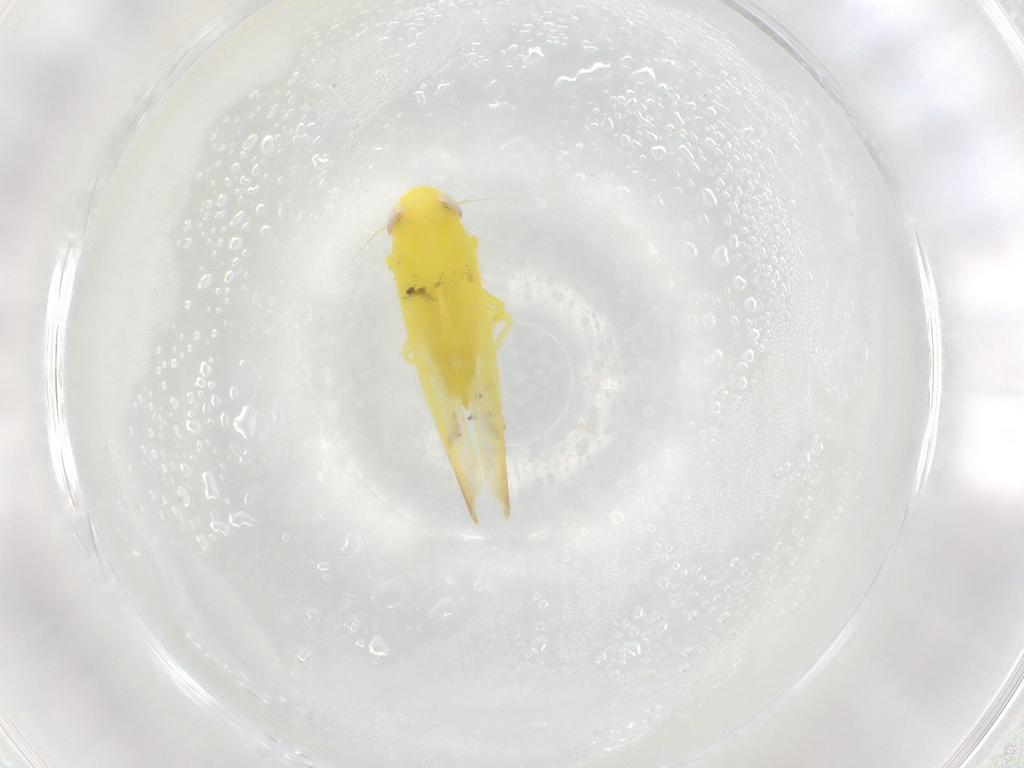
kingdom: Animalia
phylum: Arthropoda
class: Insecta
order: Hemiptera
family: Cicadellidae
